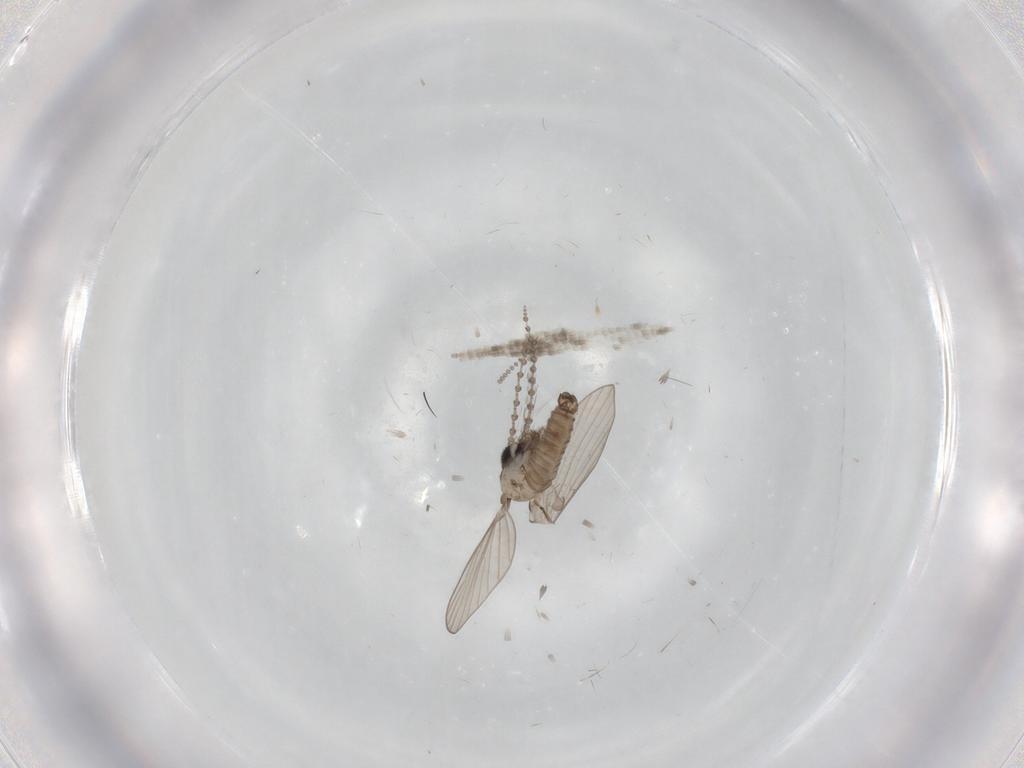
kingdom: Animalia
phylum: Arthropoda
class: Insecta
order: Diptera
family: Psychodidae
